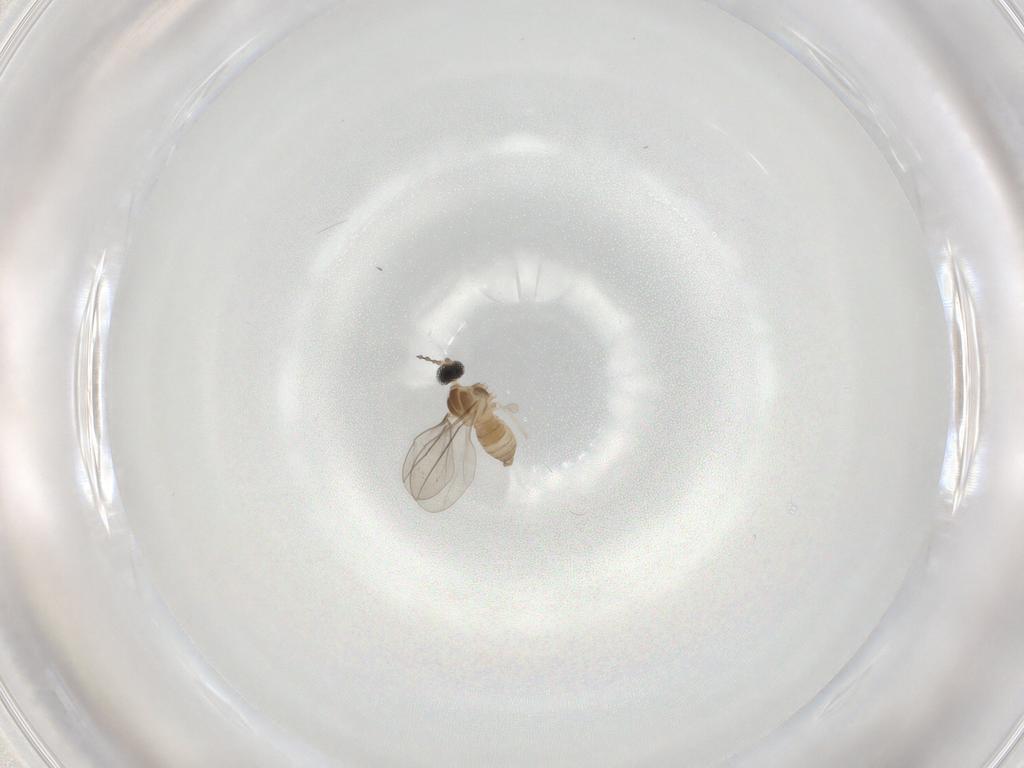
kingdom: Animalia
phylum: Arthropoda
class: Insecta
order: Diptera
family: Cecidomyiidae
